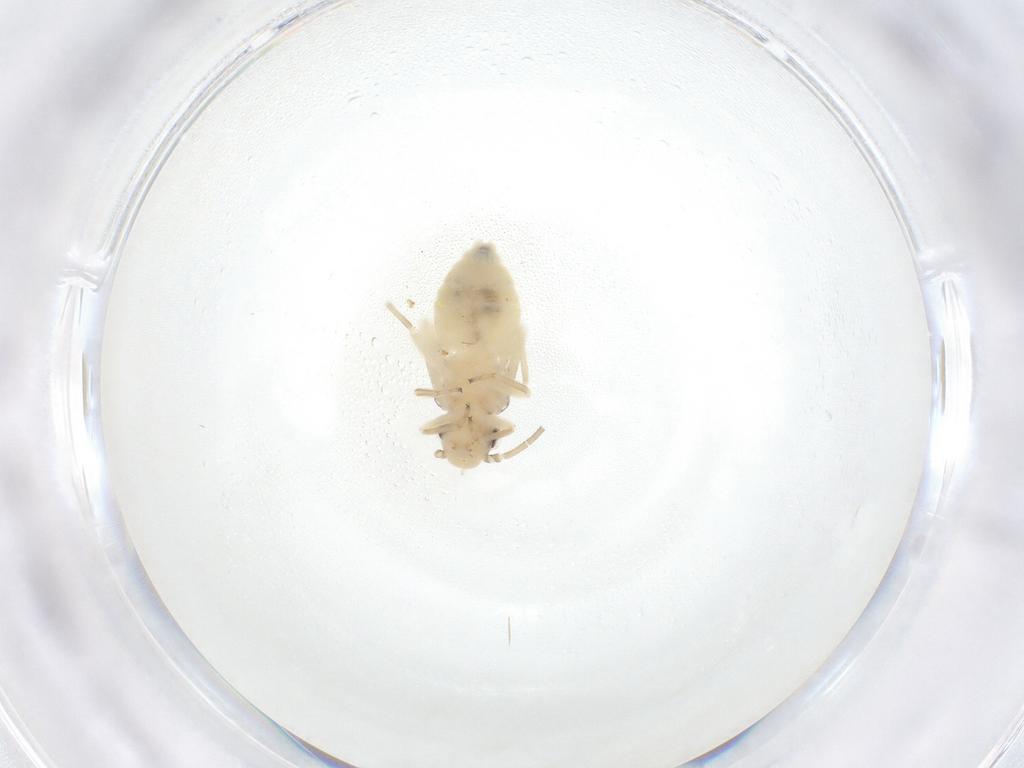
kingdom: Animalia
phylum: Arthropoda
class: Insecta
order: Psocodea
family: Caeciliusidae
